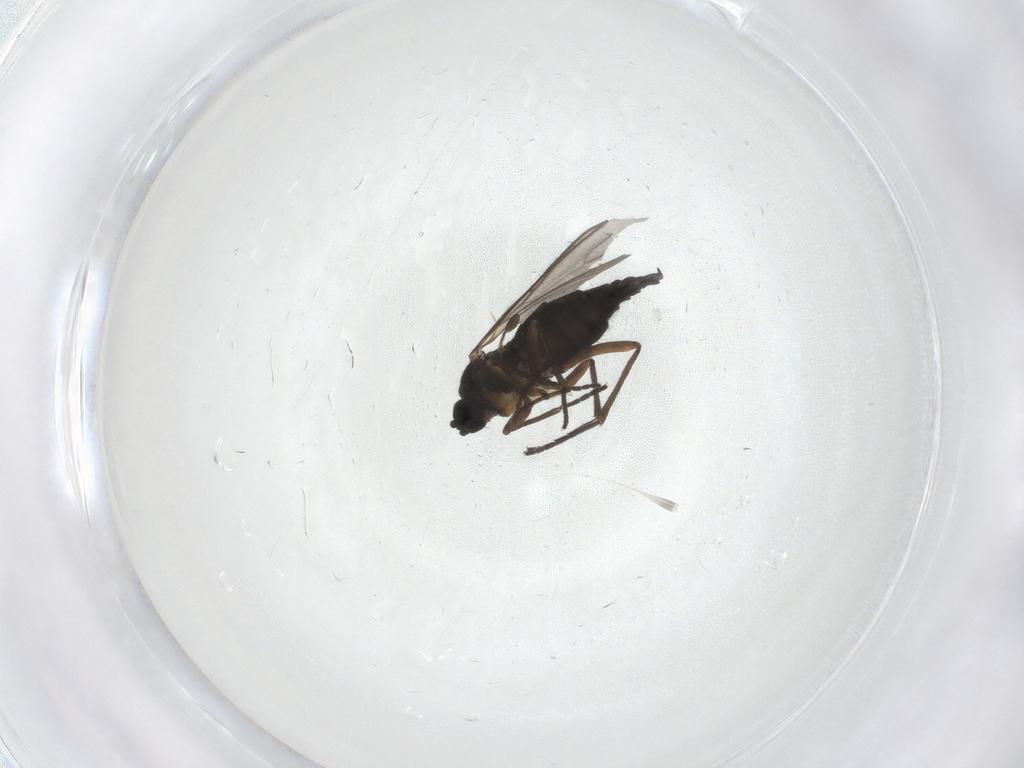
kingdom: Animalia
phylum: Arthropoda
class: Insecta
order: Diptera
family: Sciaridae
